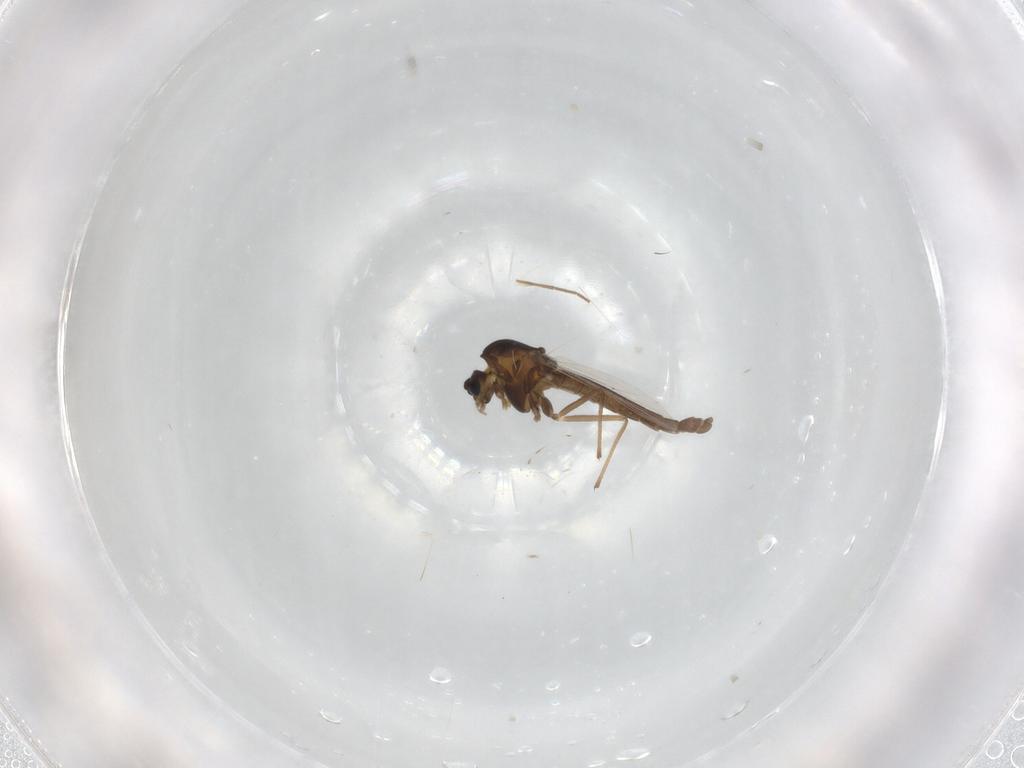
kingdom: Animalia
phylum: Arthropoda
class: Insecta
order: Diptera
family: Chironomidae
